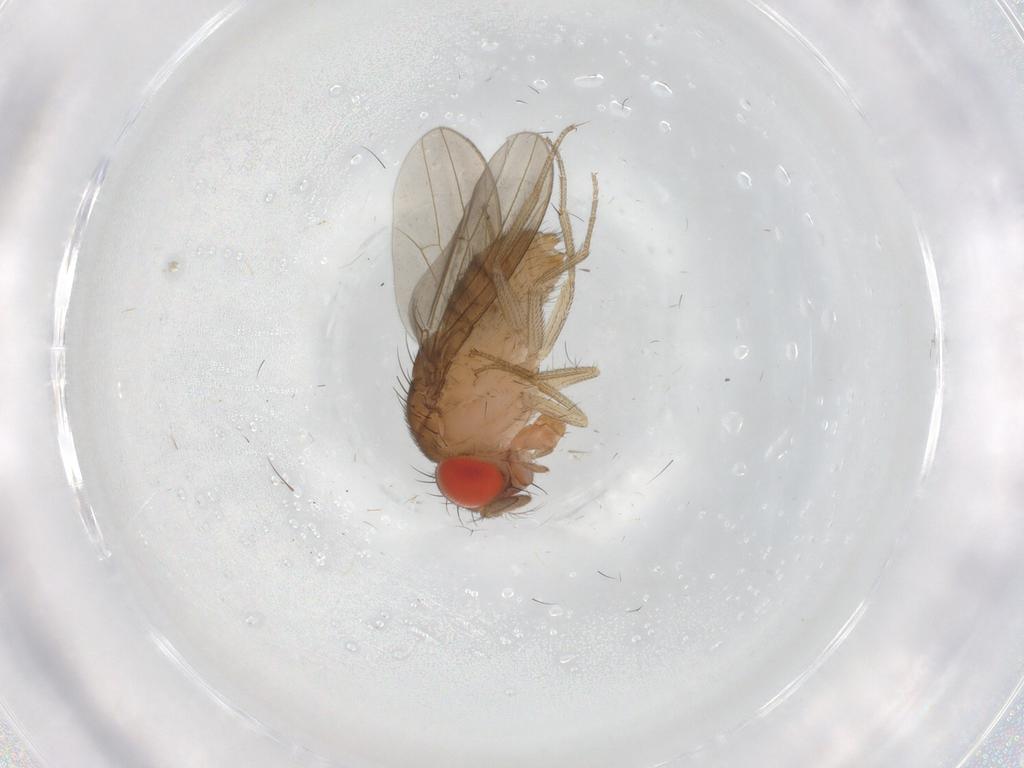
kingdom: Animalia
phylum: Arthropoda
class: Insecta
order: Diptera
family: Drosophilidae
